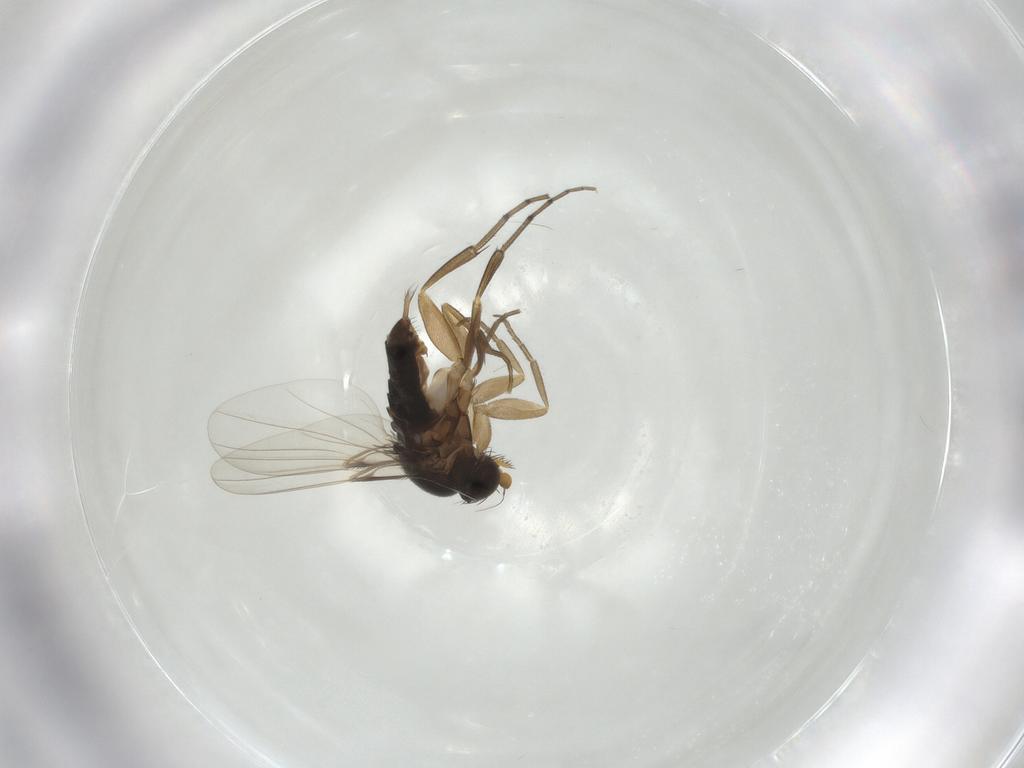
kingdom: Animalia
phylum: Arthropoda
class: Insecta
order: Diptera
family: Phoridae
